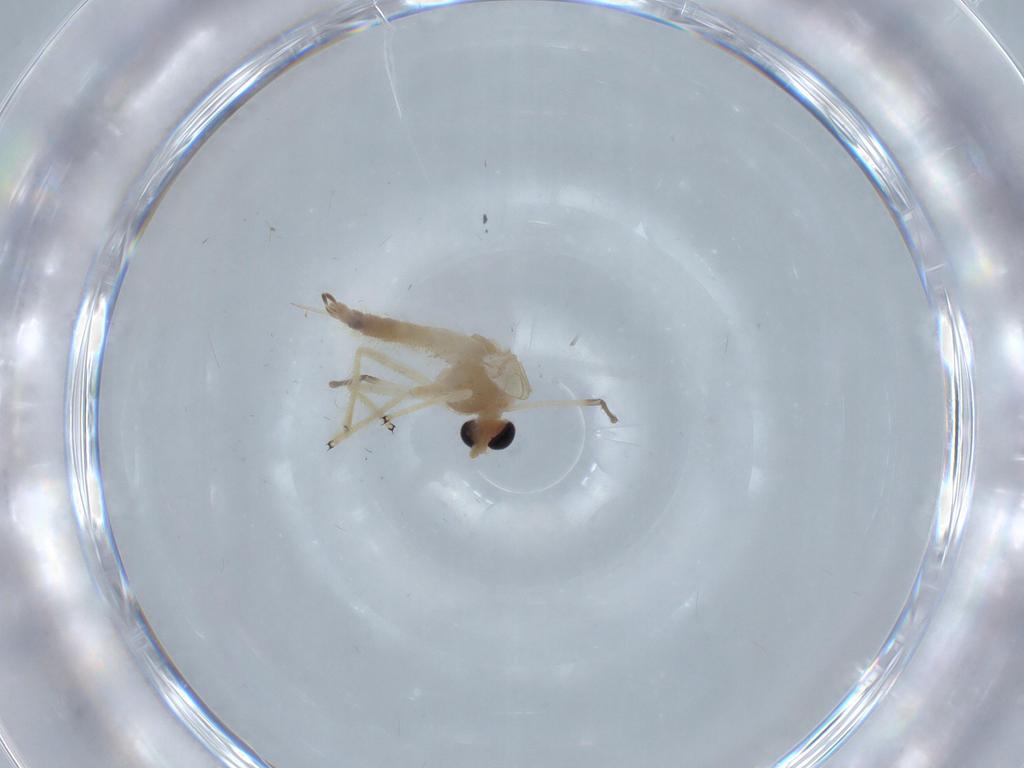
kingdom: Animalia
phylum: Arthropoda
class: Insecta
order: Diptera
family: Chironomidae
